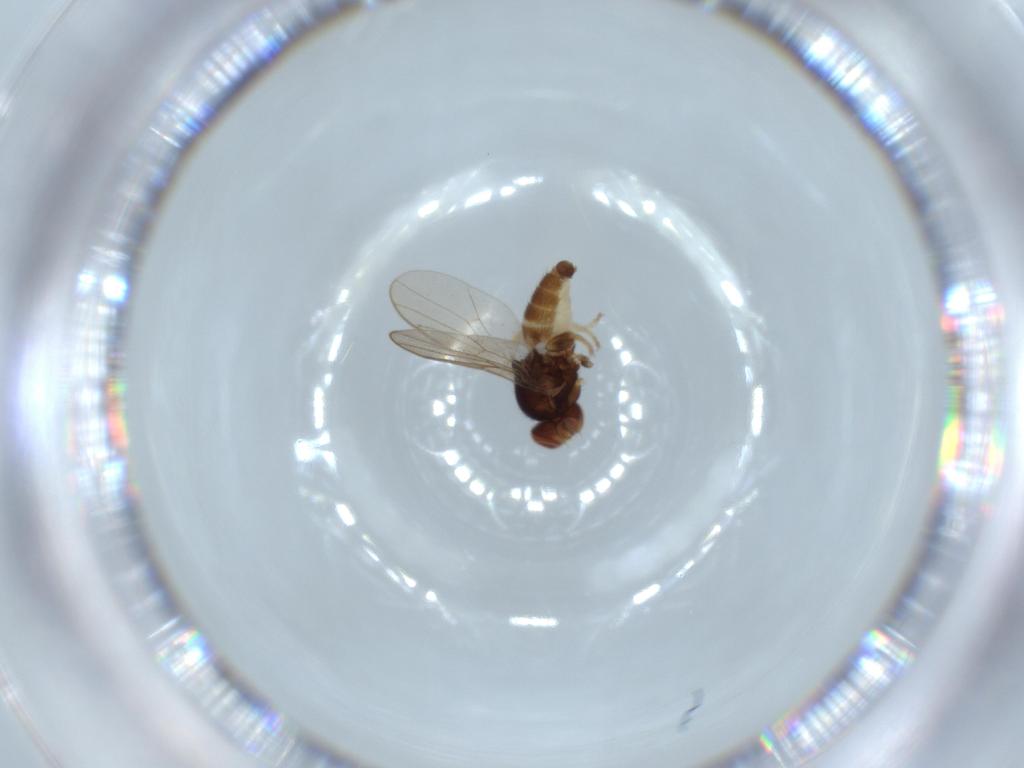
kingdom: Animalia
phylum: Arthropoda
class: Insecta
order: Diptera
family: Chloropidae
